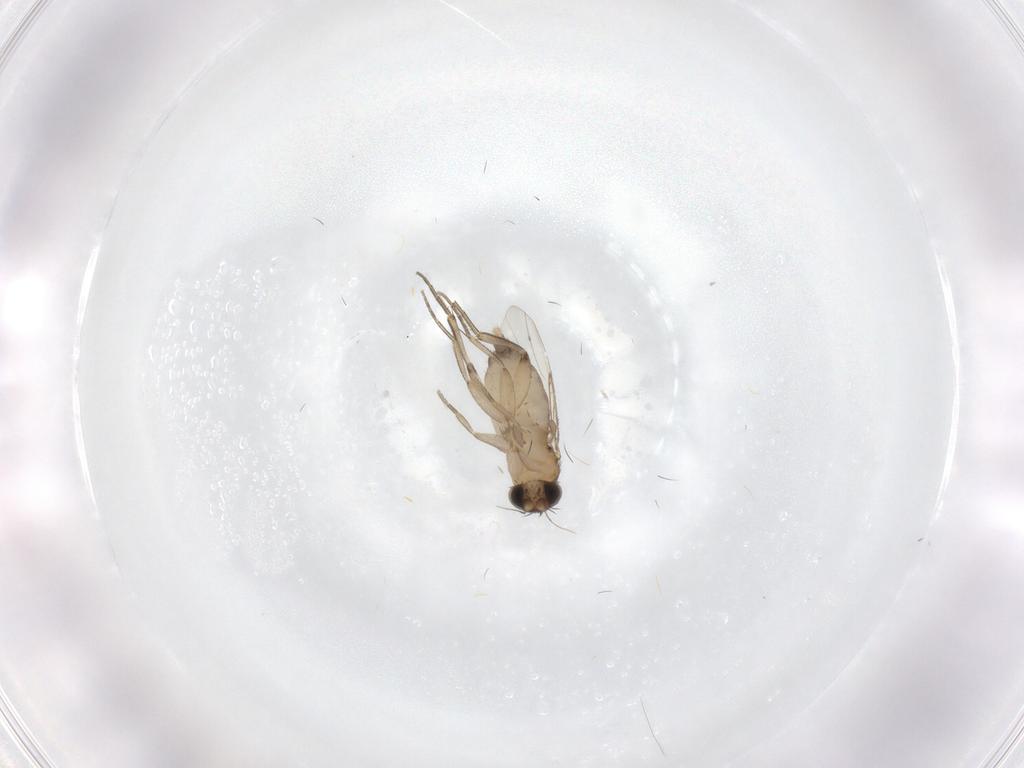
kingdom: Animalia
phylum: Arthropoda
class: Insecta
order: Diptera
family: Phoridae
